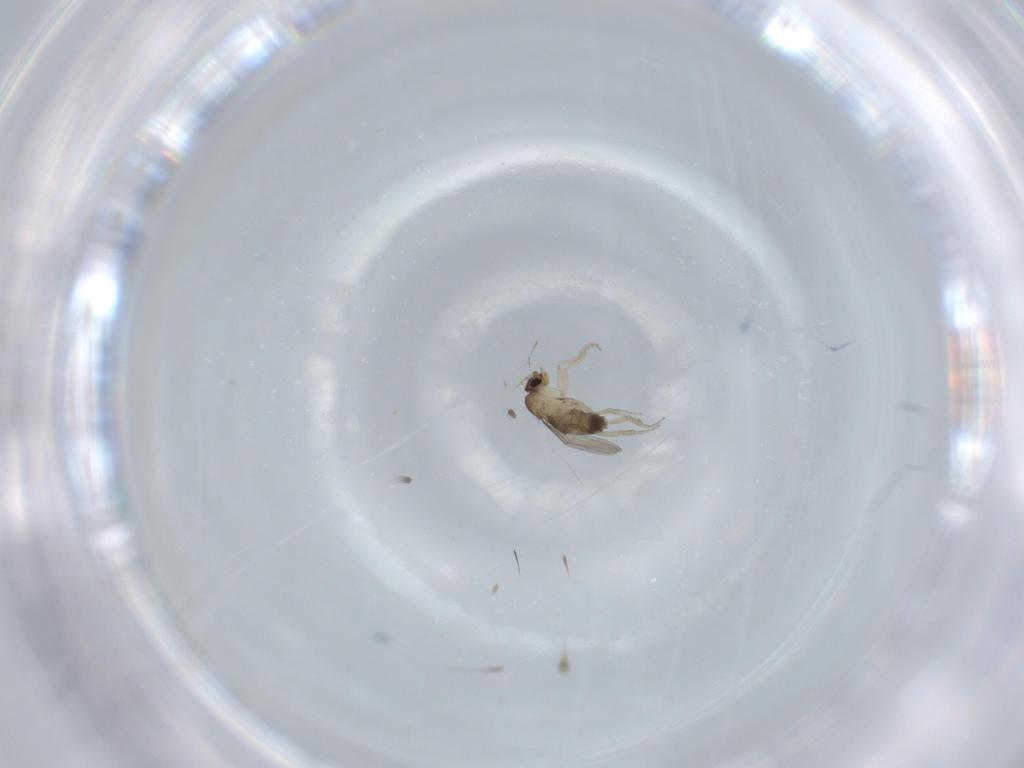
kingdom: Animalia
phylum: Arthropoda
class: Insecta
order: Diptera
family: Phoridae
